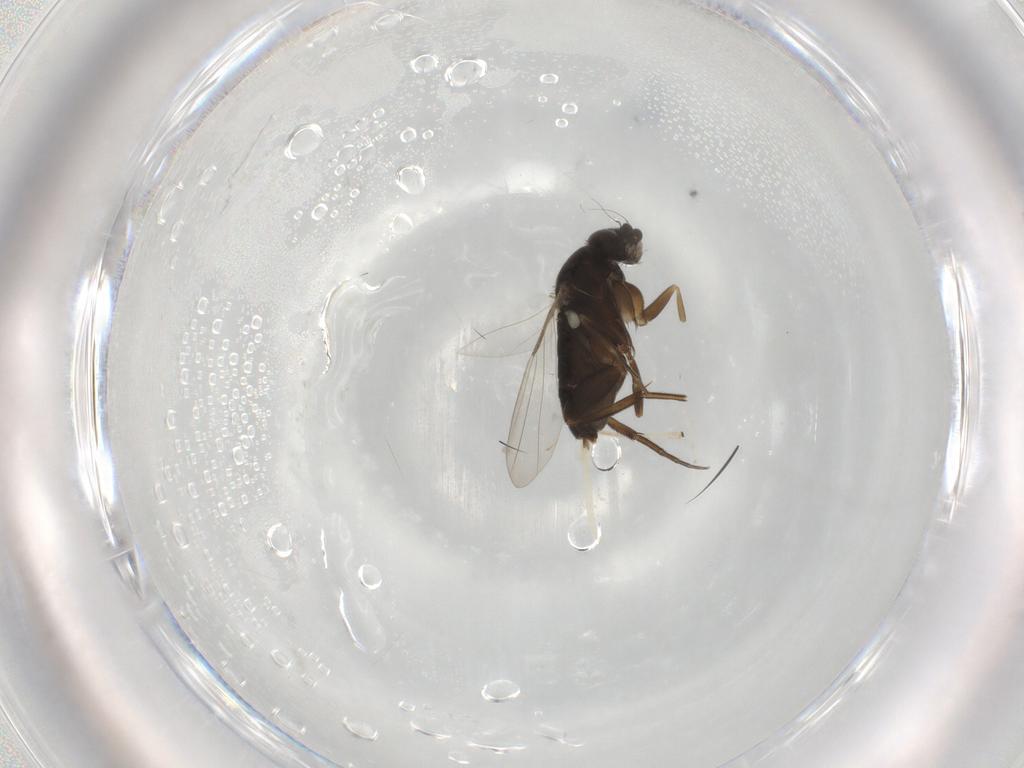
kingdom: Animalia
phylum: Arthropoda
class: Insecta
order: Diptera
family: Phoridae
